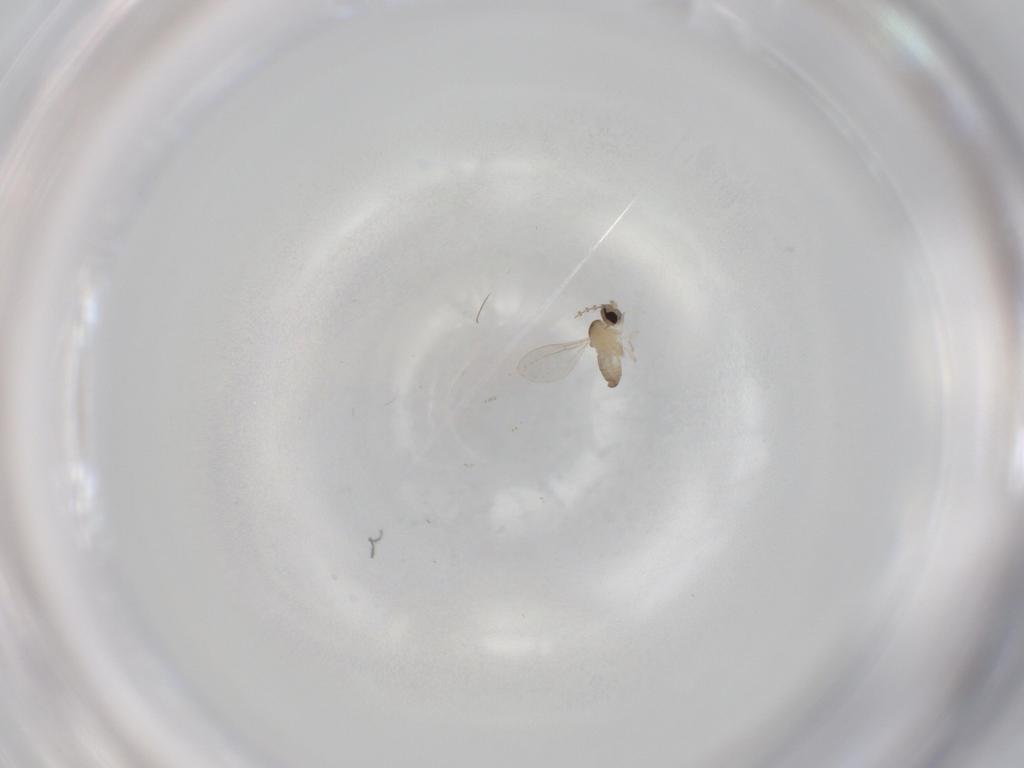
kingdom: Animalia
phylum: Arthropoda
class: Insecta
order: Diptera
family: Cecidomyiidae
